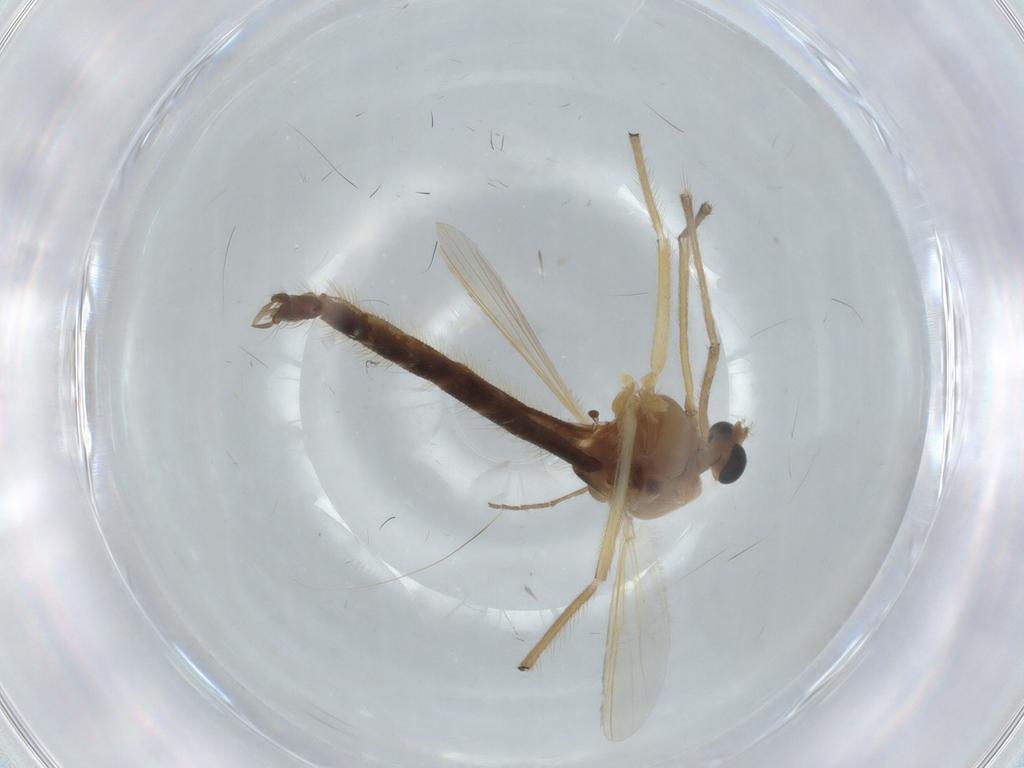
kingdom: Animalia
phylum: Arthropoda
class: Insecta
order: Diptera
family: Chironomidae
